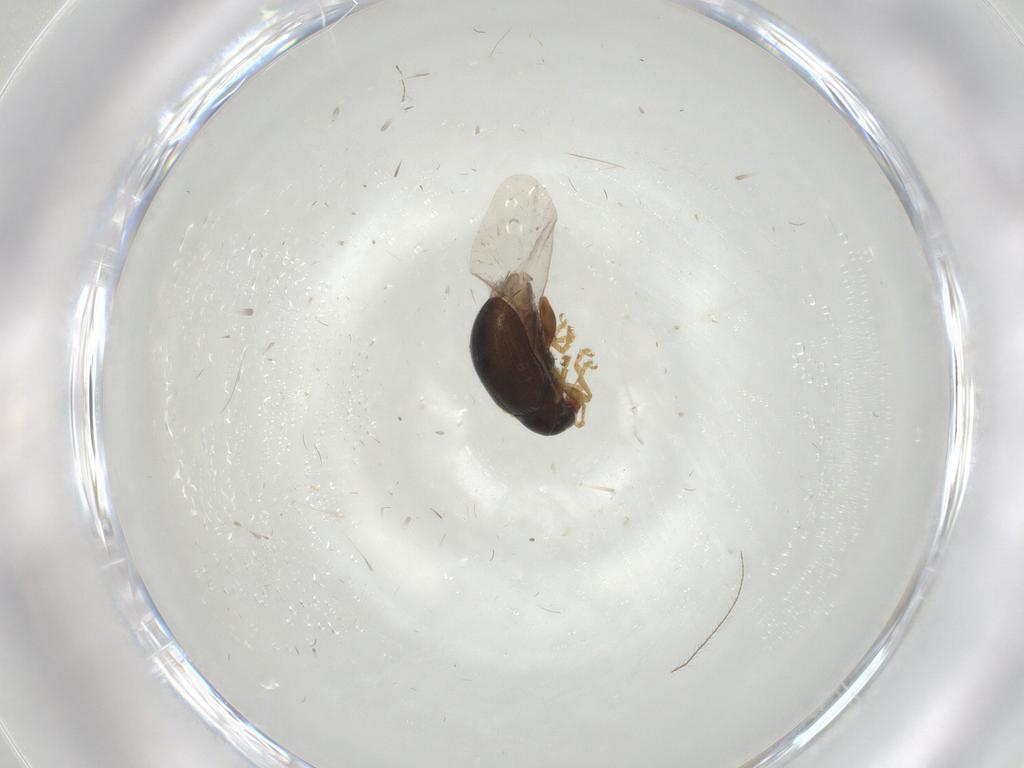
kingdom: Animalia
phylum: Arthropoda
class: Insecta
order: Coleoptera
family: Chrysomelidae
